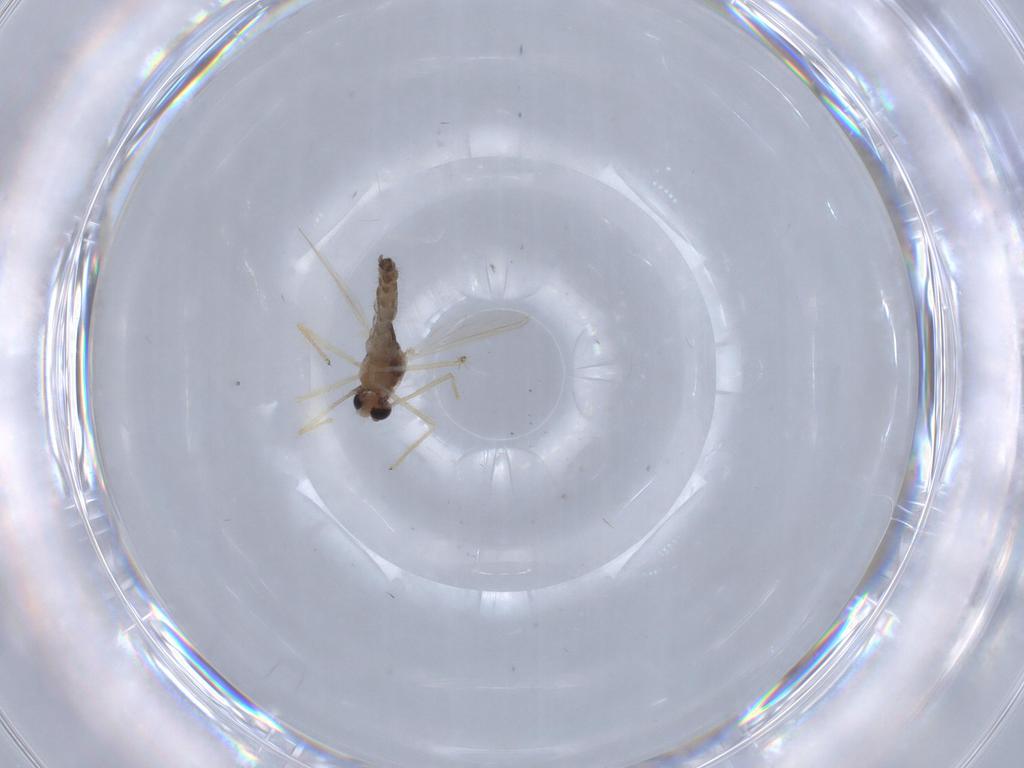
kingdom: Animalia
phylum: Arthropoda
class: Insecta
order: Diptera
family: Chironomidae
